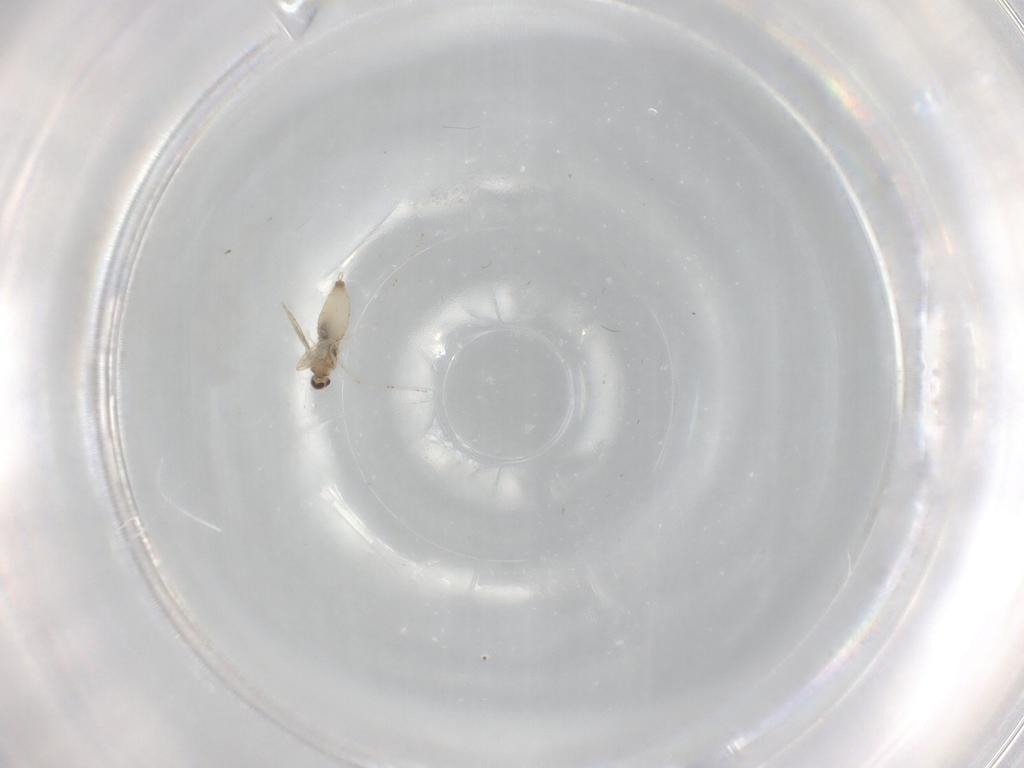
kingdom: Animalia
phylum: Arthropoda
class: Insecta
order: Diptera
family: Cecidomyiidae
